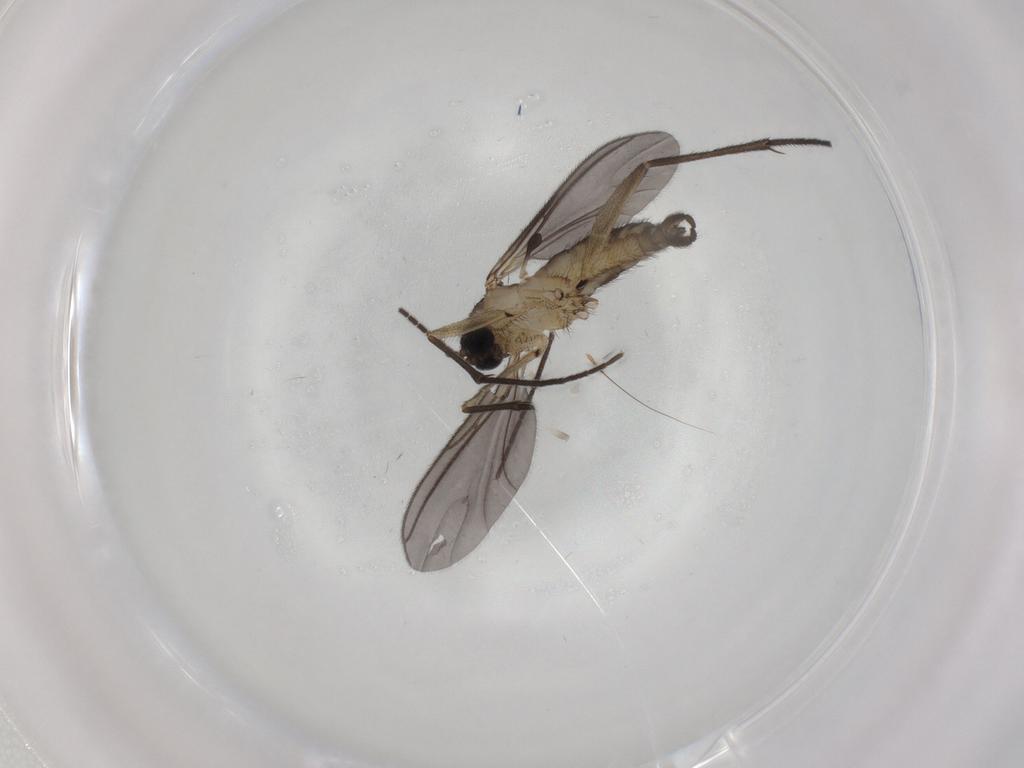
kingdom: Animalia
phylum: Arthropoda
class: Insecta
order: Diptera
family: Sciaridae
